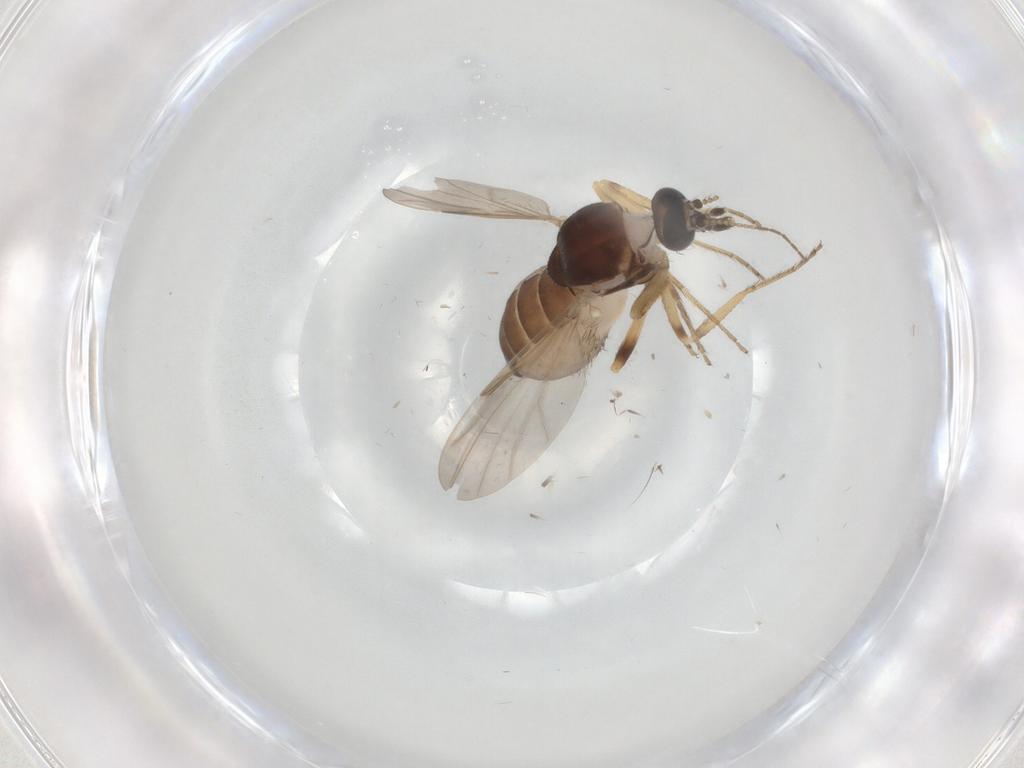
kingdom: Animalia
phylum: Arthropoda
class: Insecta
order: Diptera
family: Ceratopogonidae
